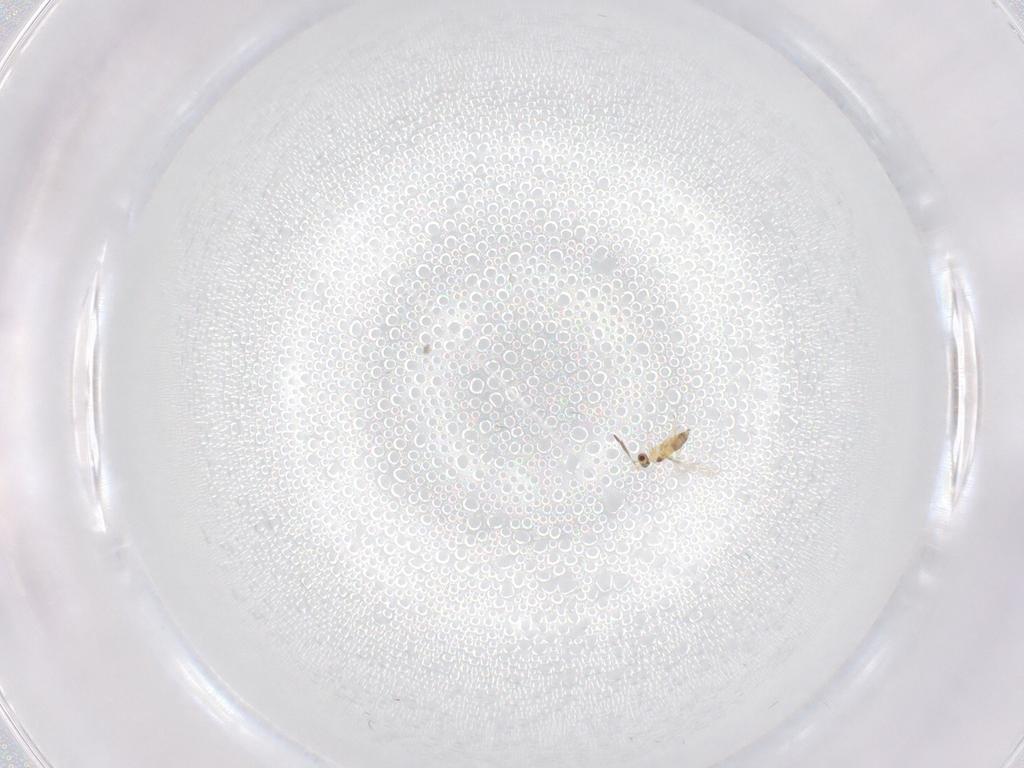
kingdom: Animalia
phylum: Arthropoda
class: Insecta
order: Hymenoptera
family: Mymaridae
